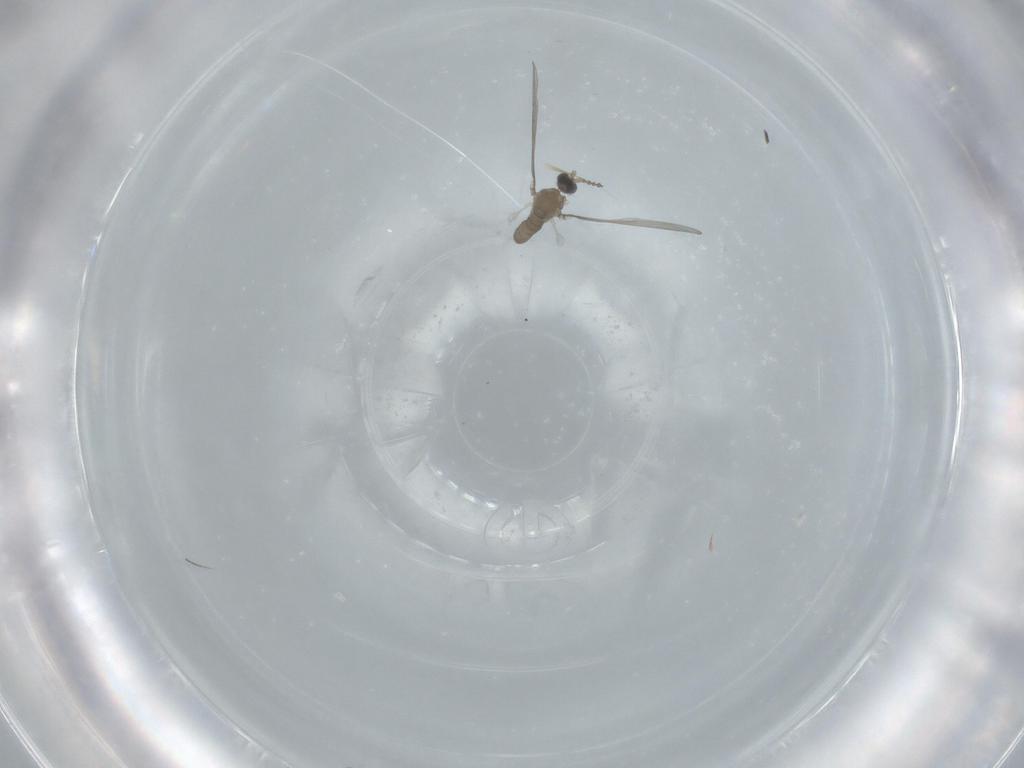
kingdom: Animalia
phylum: Arthropoda
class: Insecta
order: Diptera
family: Cecidomyiidae
